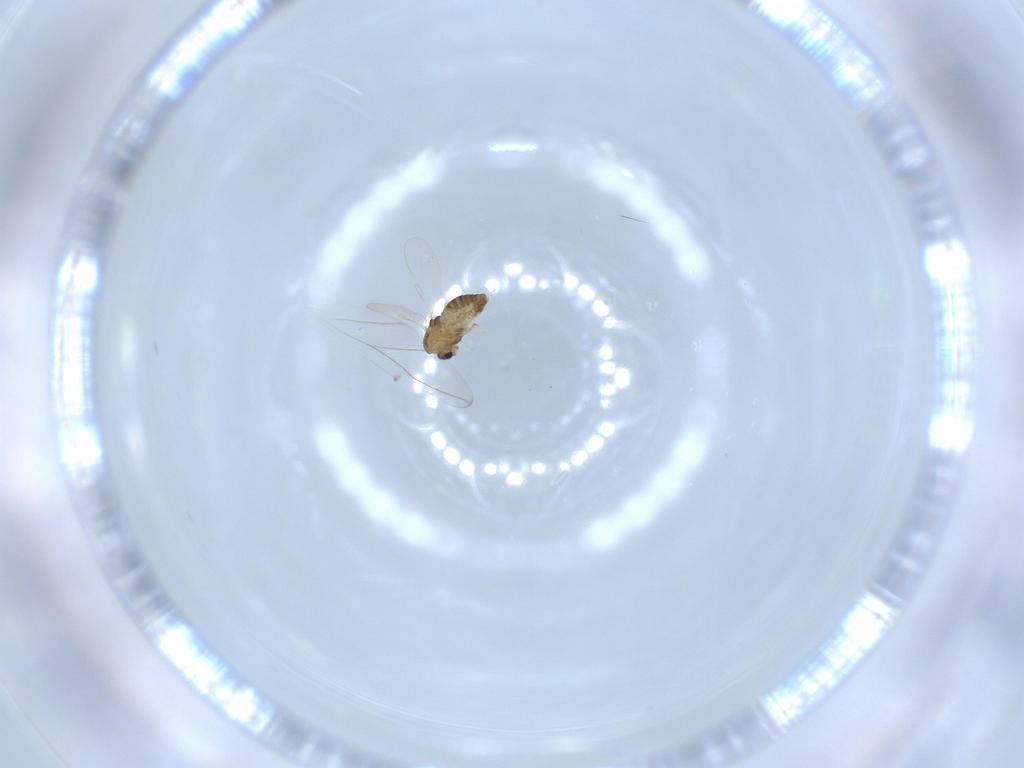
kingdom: Animalia
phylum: Arthropoda
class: Insecta
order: Diptera
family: Chironomidae
